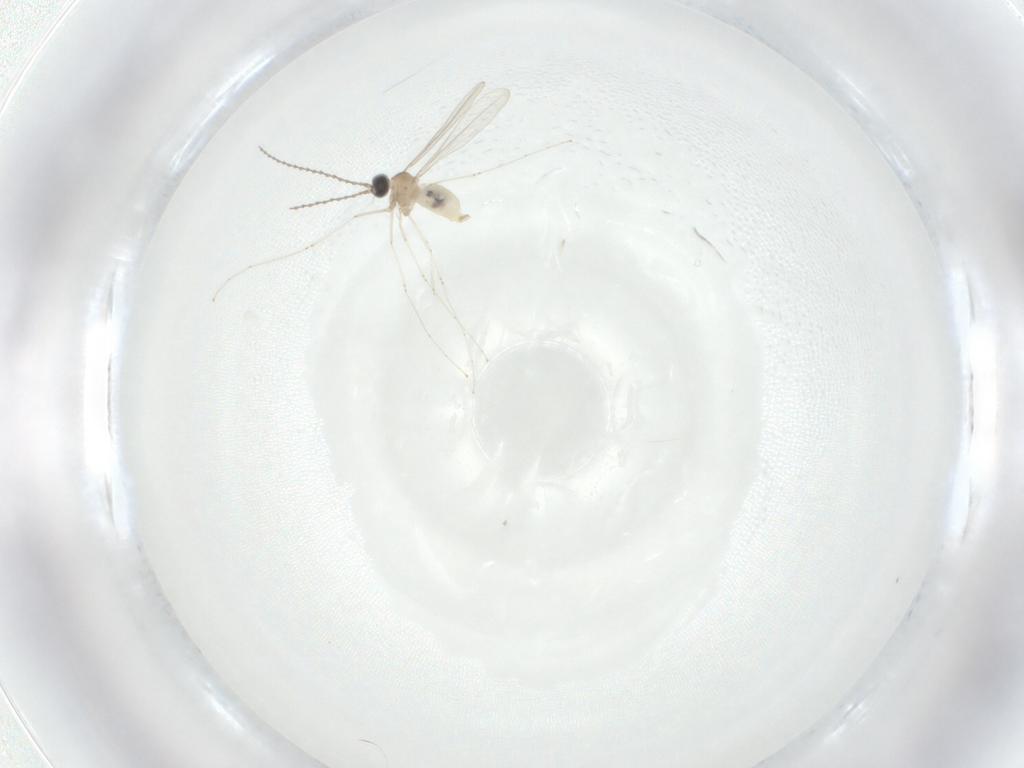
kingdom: Animalia
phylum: Arthropoda
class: Insecta
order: Diptera
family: Cecidomyiidae
